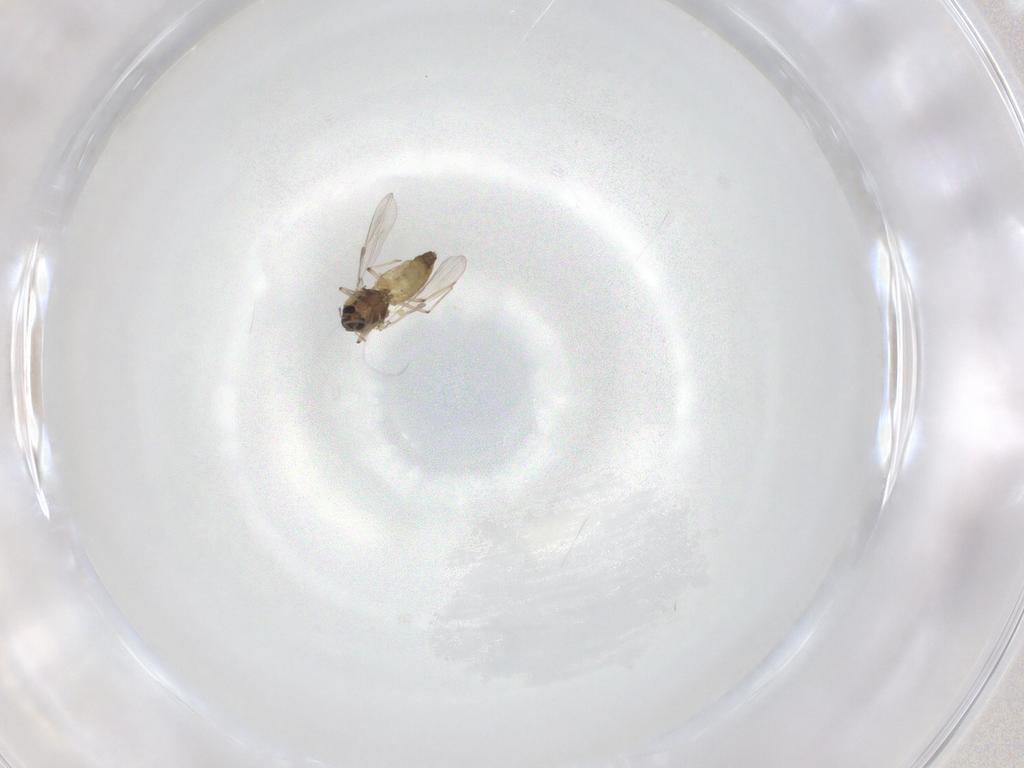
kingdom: Animalia
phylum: Arthropoda
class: Insecta
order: Diptera
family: Chironomidae
